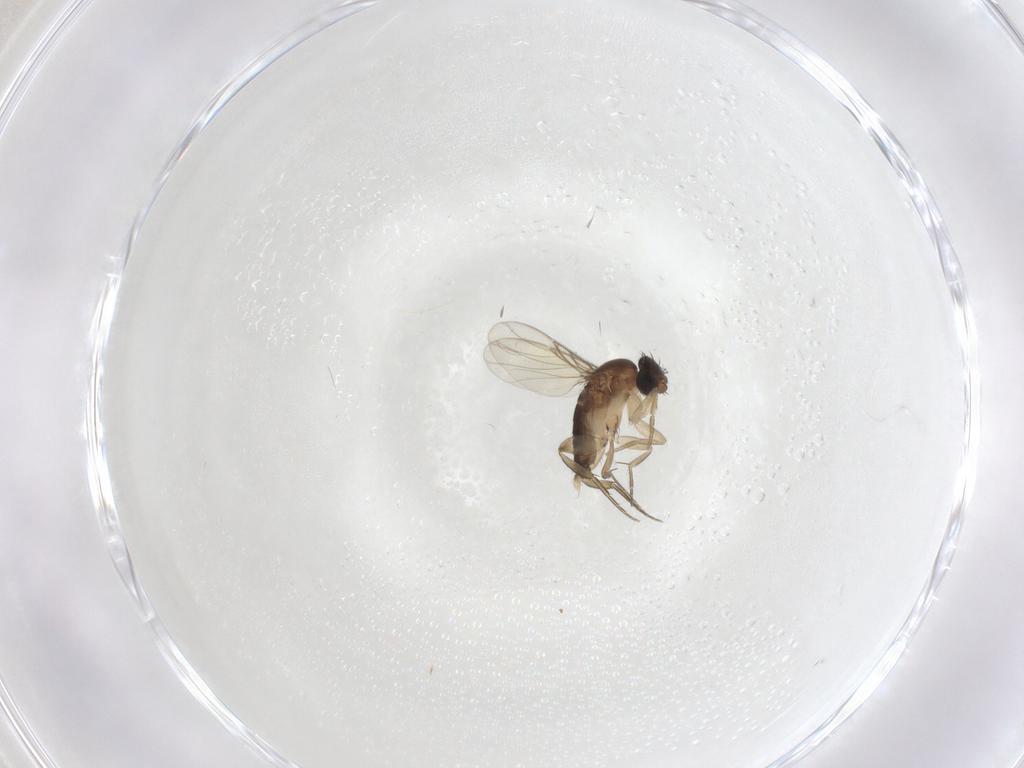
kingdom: Animalia
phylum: Arthropoda
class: Insecta
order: Diptera
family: Phoridae
